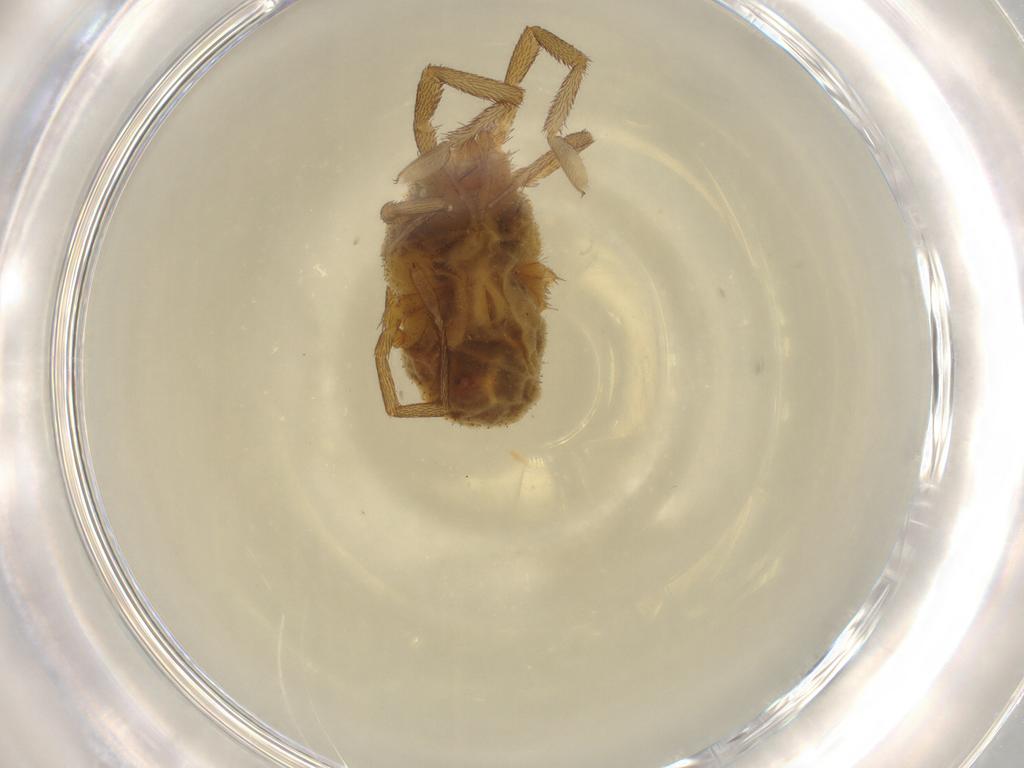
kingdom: Animalia
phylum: Arthropoda
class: Arachnida
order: Trombidiformes
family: Erythraeidae
